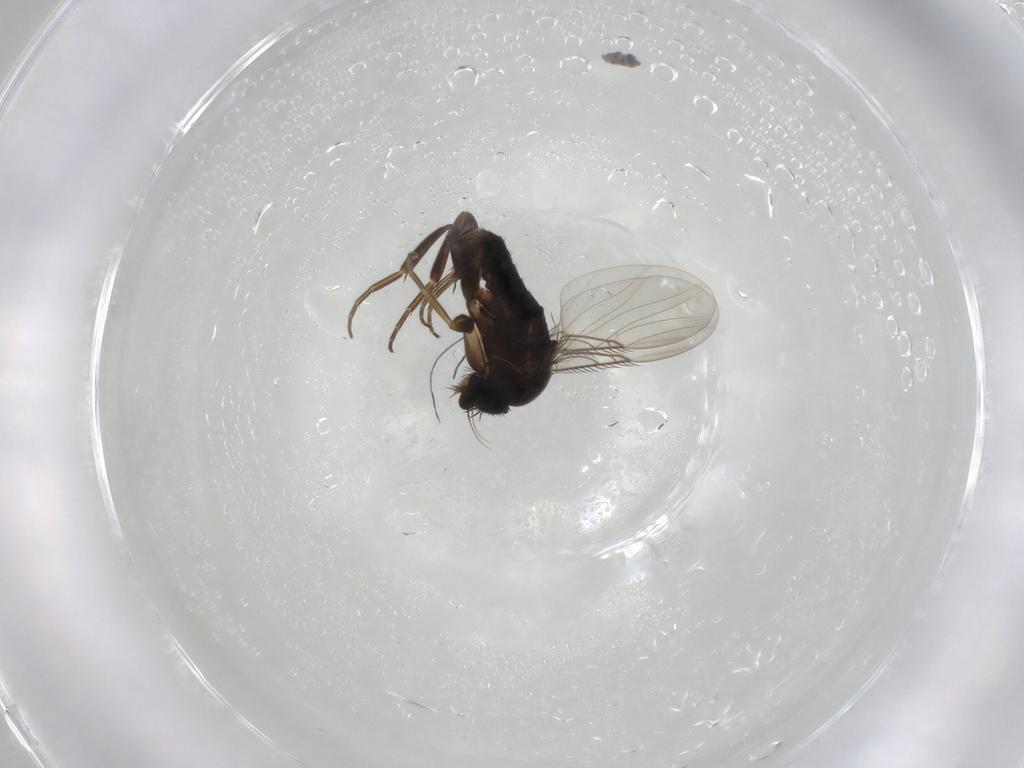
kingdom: Animalia
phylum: Arthropoda
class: Insecta
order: Diptera
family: Phoridae
